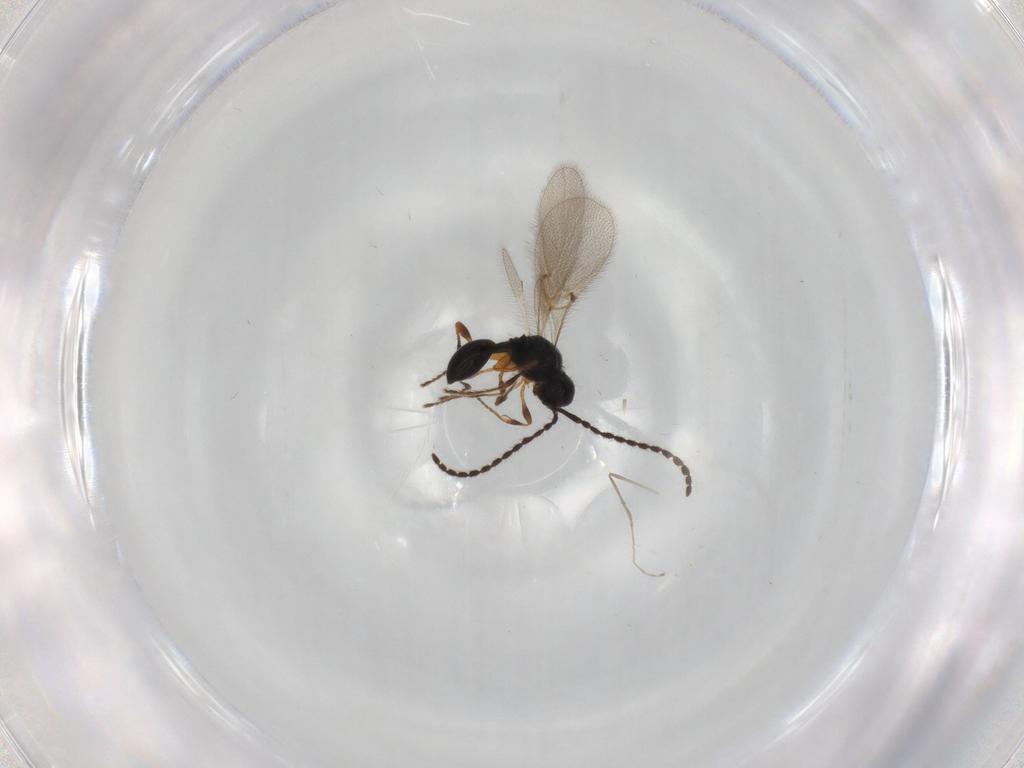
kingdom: Animalia
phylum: Arthropoda
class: Insecta
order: Hymenoptera
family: Diapriidae
